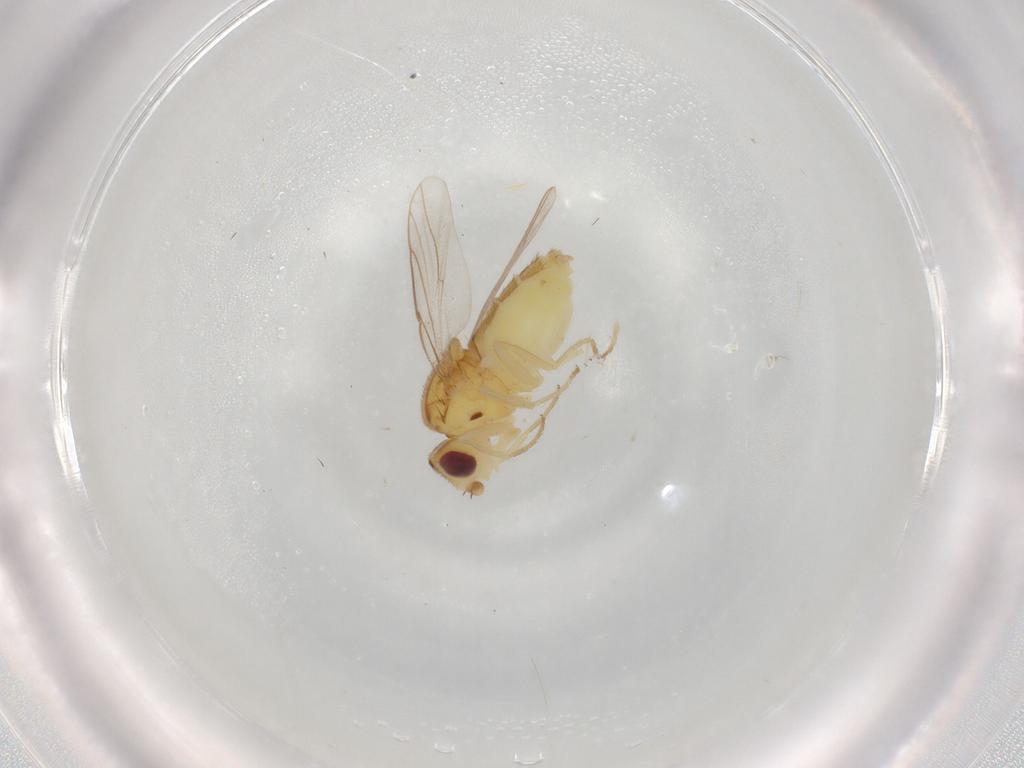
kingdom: Animalia
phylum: Arthropoda
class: Insecta
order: Diptera
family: Muscidae
